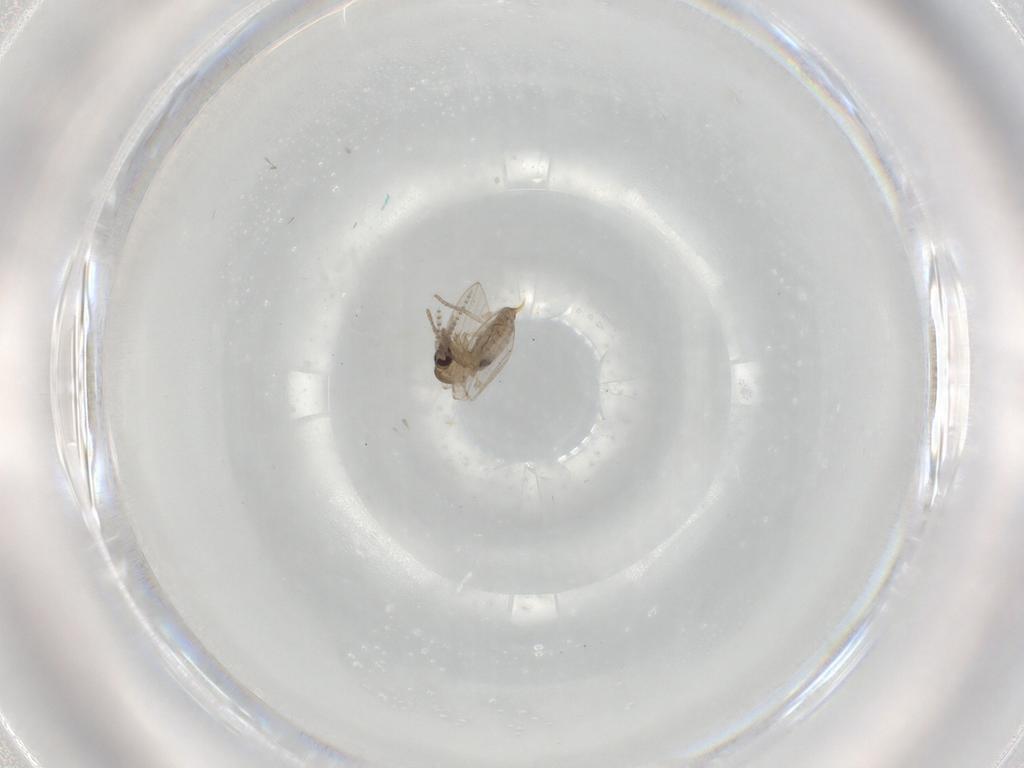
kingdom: Animalia
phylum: Arthropoda
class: Insecta
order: Diptera
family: Psychodidae
